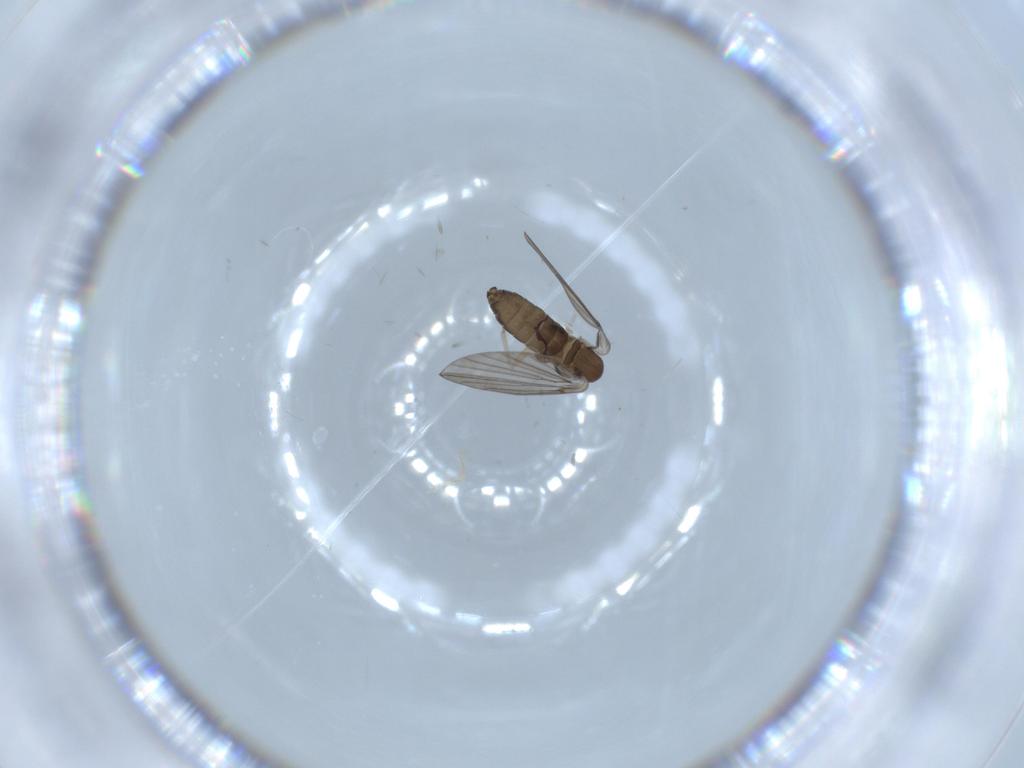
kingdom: Animalia
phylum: Arthropoda
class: Insecta
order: Diptera
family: Psychodidae
